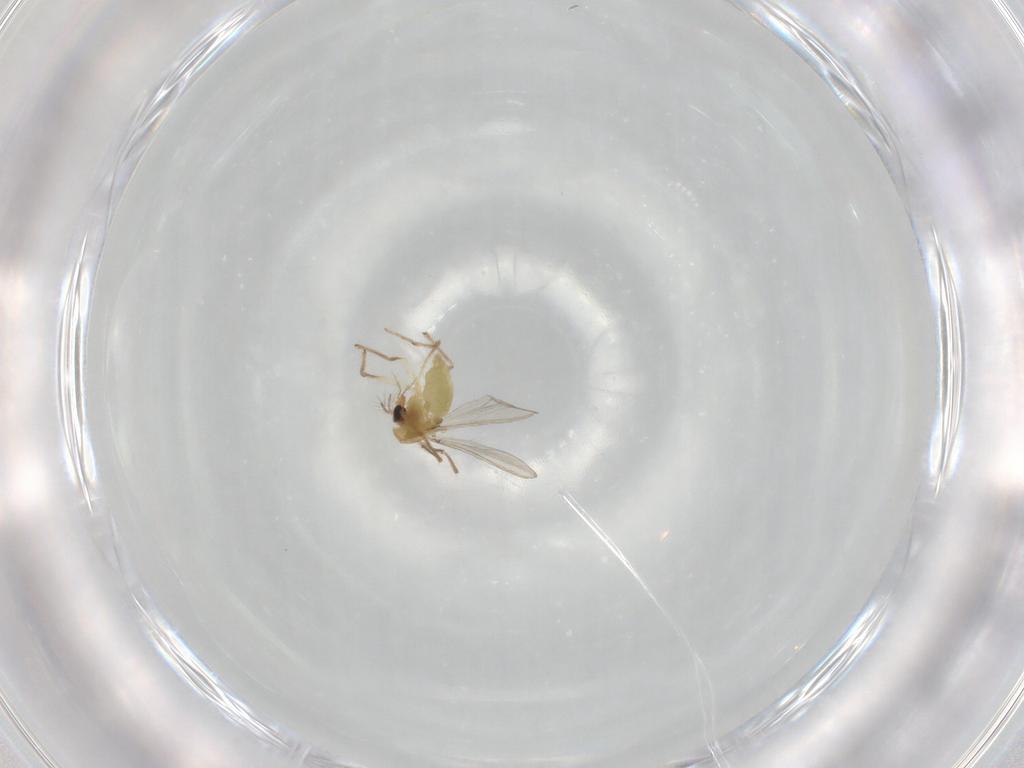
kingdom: Animalia
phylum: Arthropoda
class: Insecta
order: Diptera
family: Chironomidae
